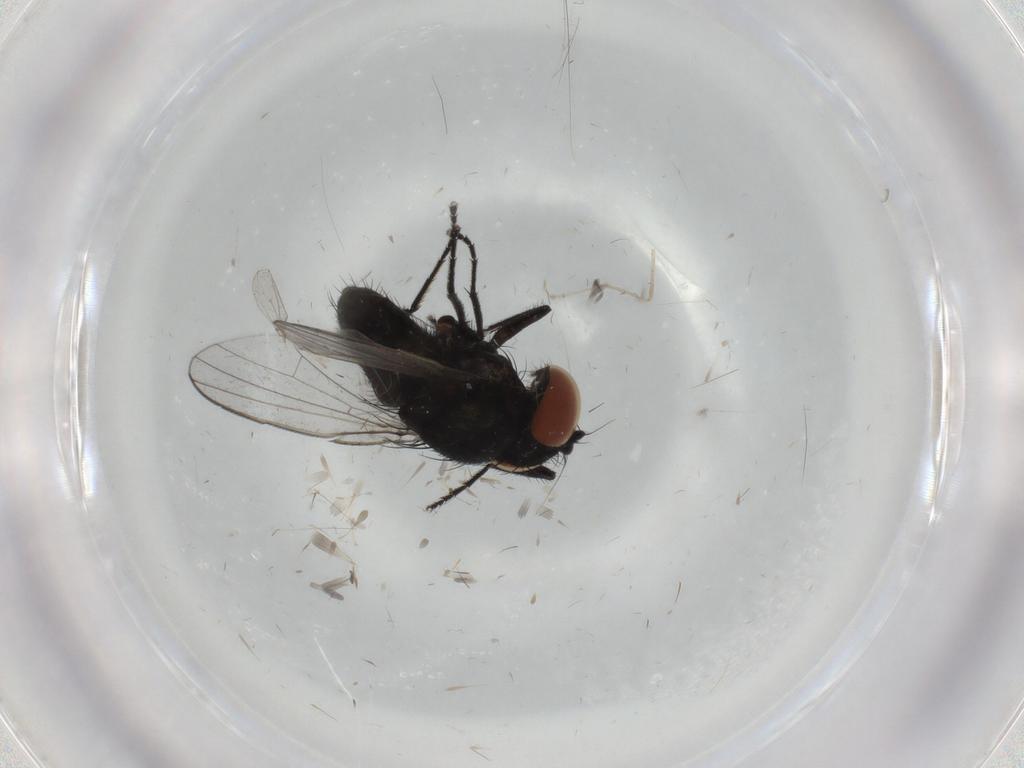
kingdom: Animalia
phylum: Arthropoda
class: Insecta
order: Diptera
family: Milichiidae
